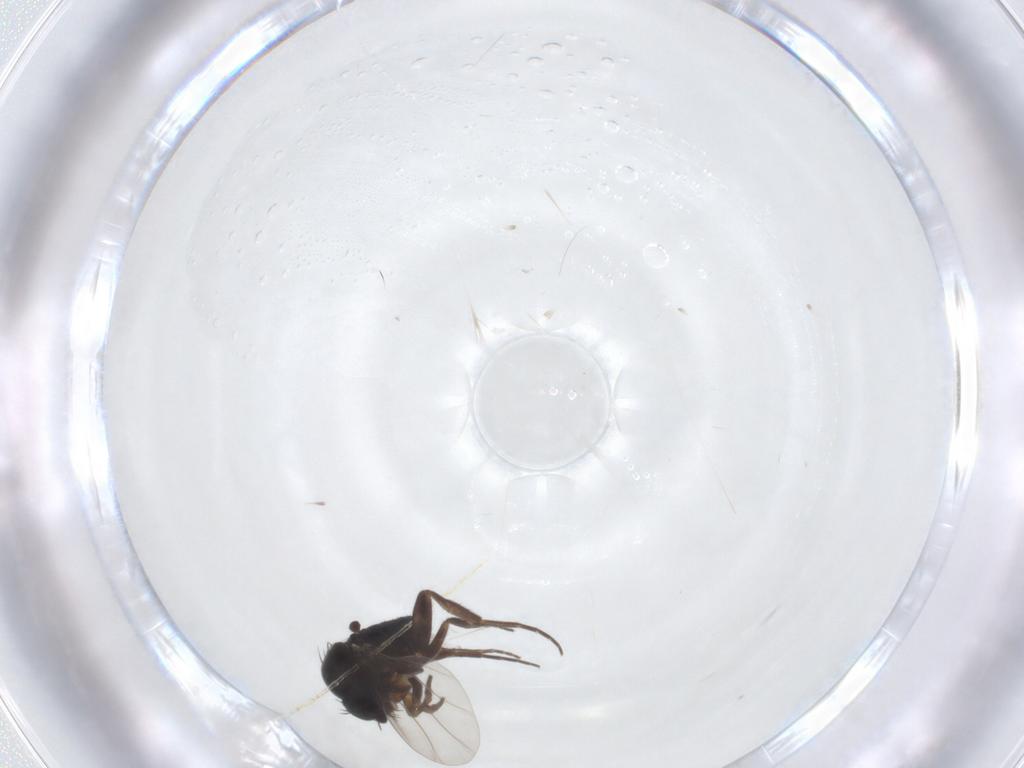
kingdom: Animalia
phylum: Arthropoda
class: Insecta
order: Diptera
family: Phoridae
